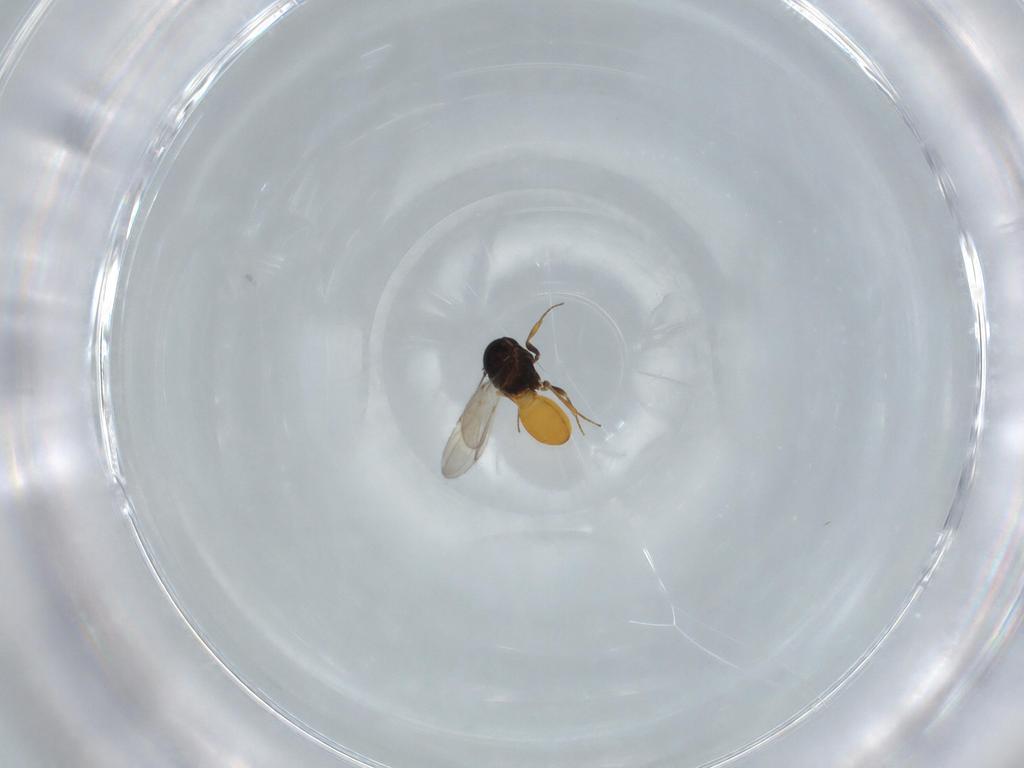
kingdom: Animalia
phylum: Arthropoda
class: Insecta
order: Hymenoptera
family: Scelionidae
